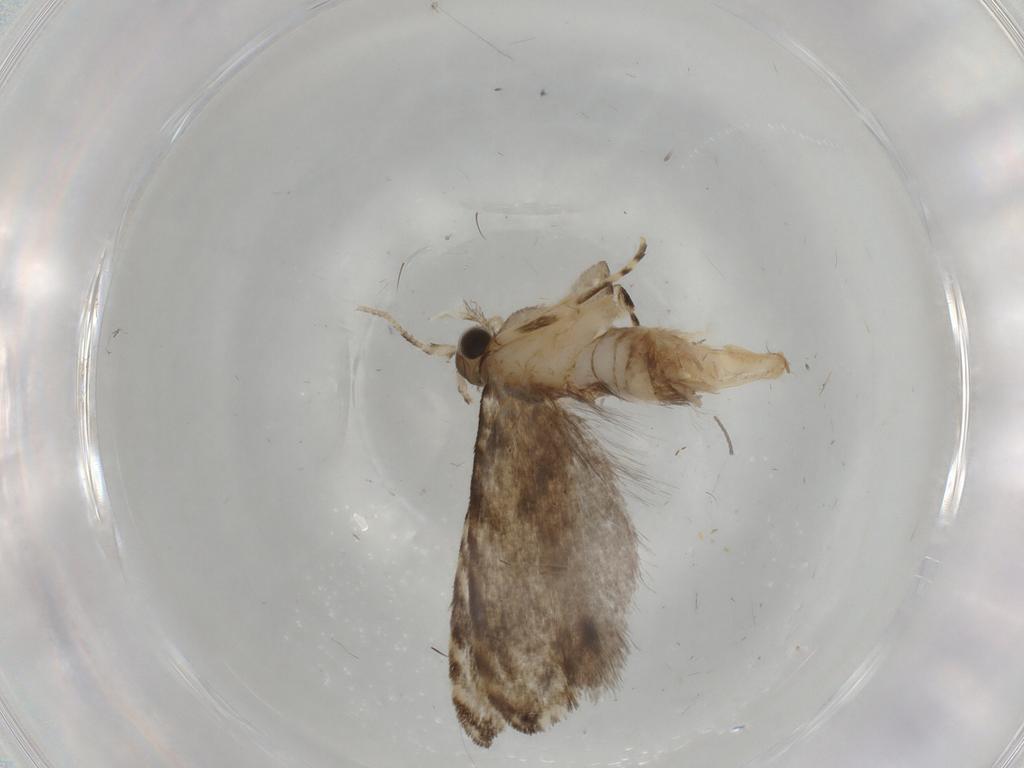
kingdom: Animalia
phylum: Arthropoda
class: Insecta
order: Lepidoptera
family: Tineidae
